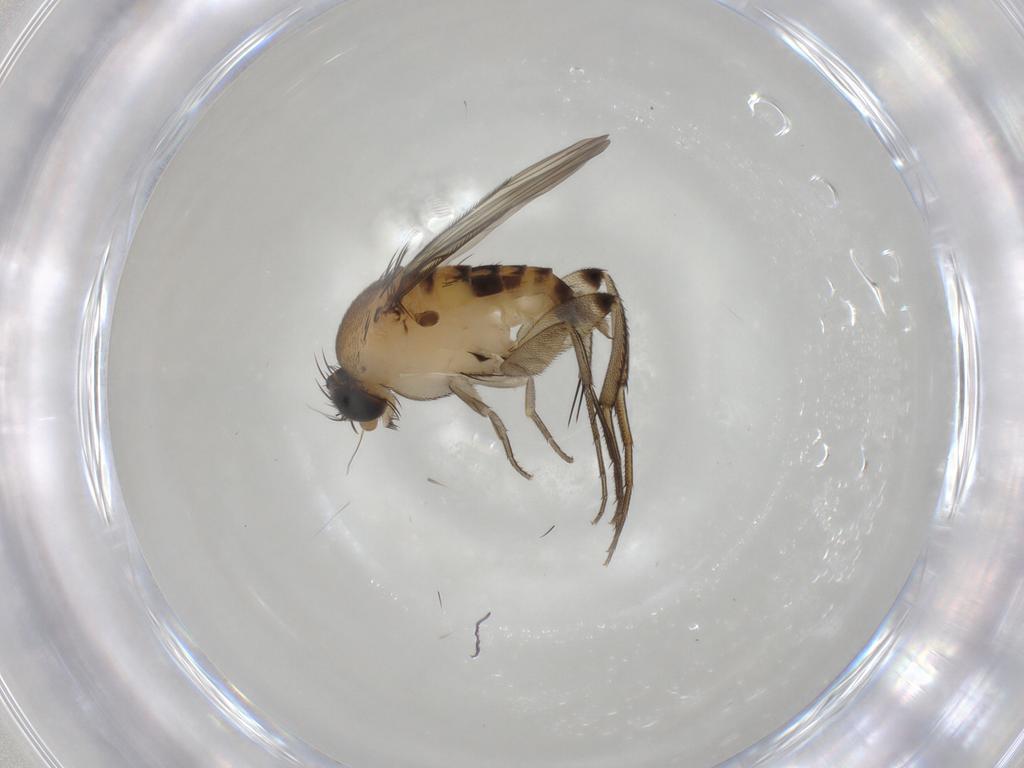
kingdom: Animalia
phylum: Arthropoda
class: Insecta
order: Diptera
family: Phoridae
